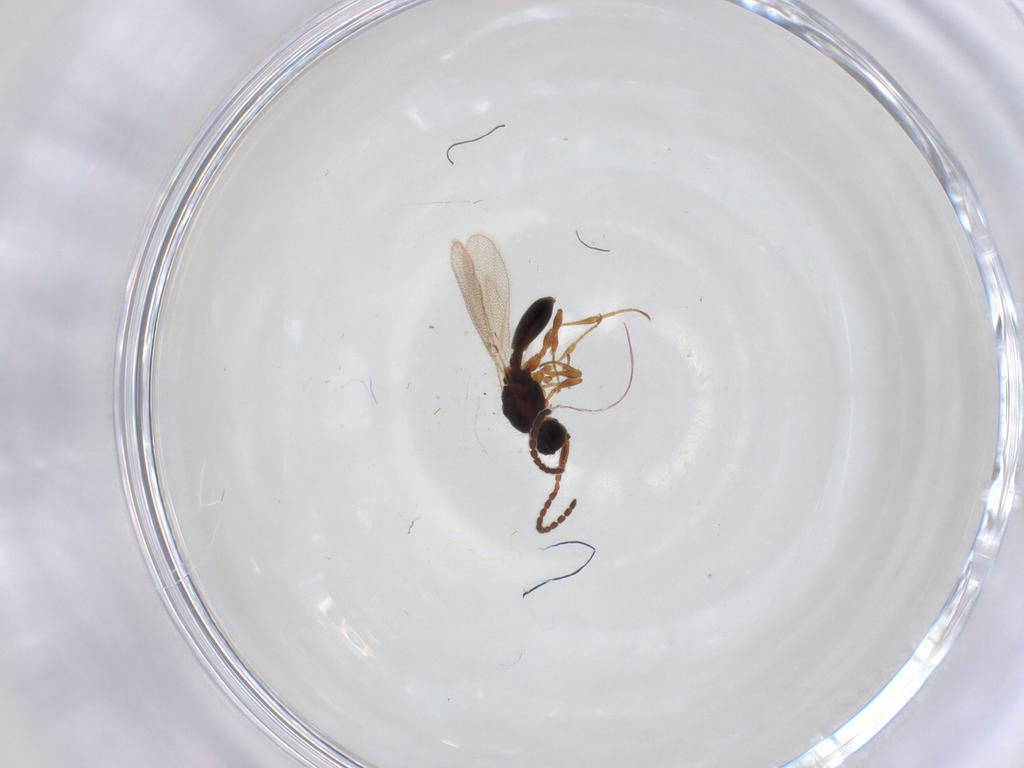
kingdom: Animalia
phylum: Arthropoda
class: Insecta
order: Hymenoptera
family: Diapriidae
